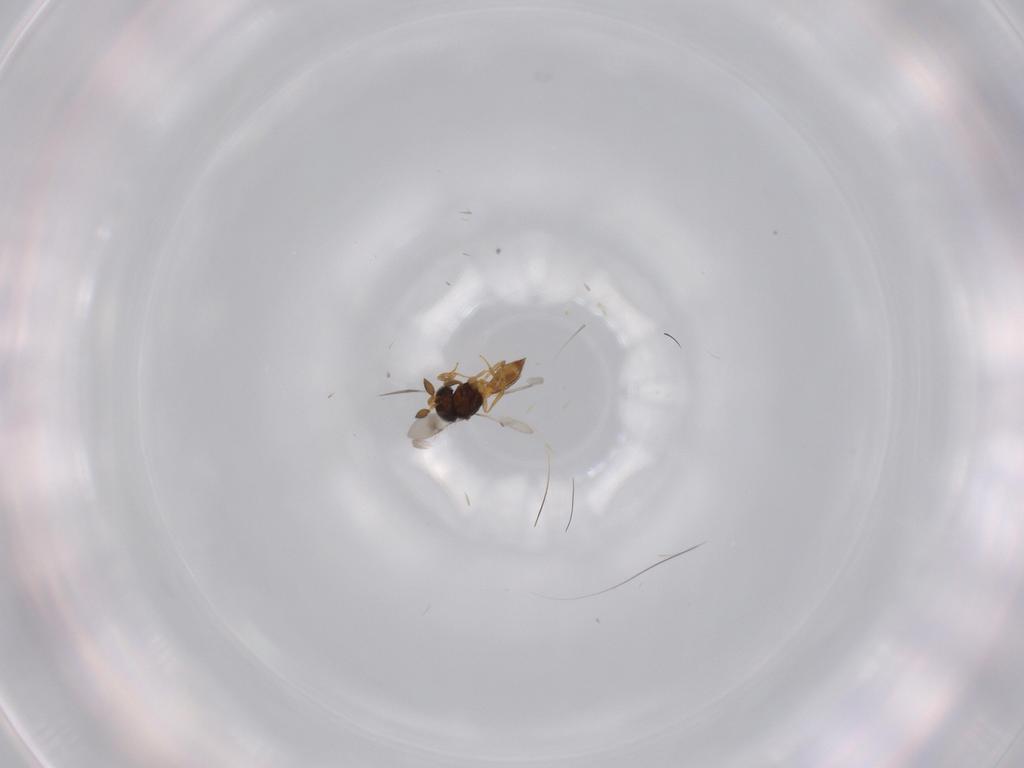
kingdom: Animalia
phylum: Arthropoda
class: Insecta
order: Hymenoptera
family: Scelionidae
